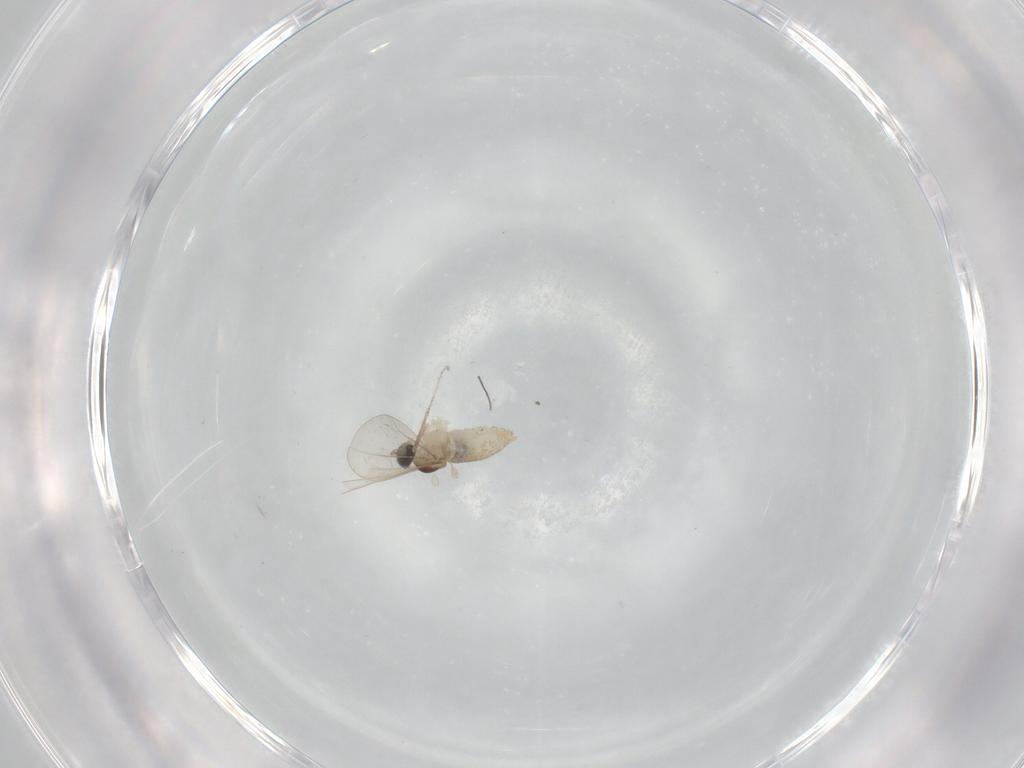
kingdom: Animalia
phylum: Arthropoda
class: Insecta
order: Diptera
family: Cecidomyiidae
